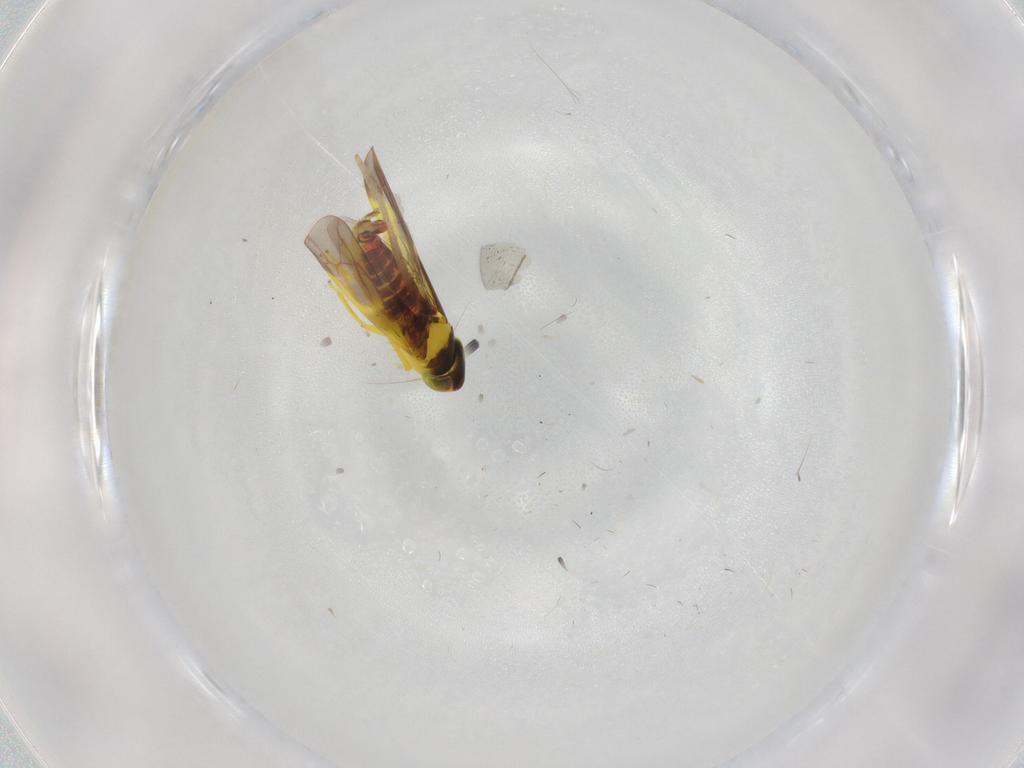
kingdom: Animalia
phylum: Arthropoda
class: Insecta
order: Hemiptera
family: Cicadellidae
